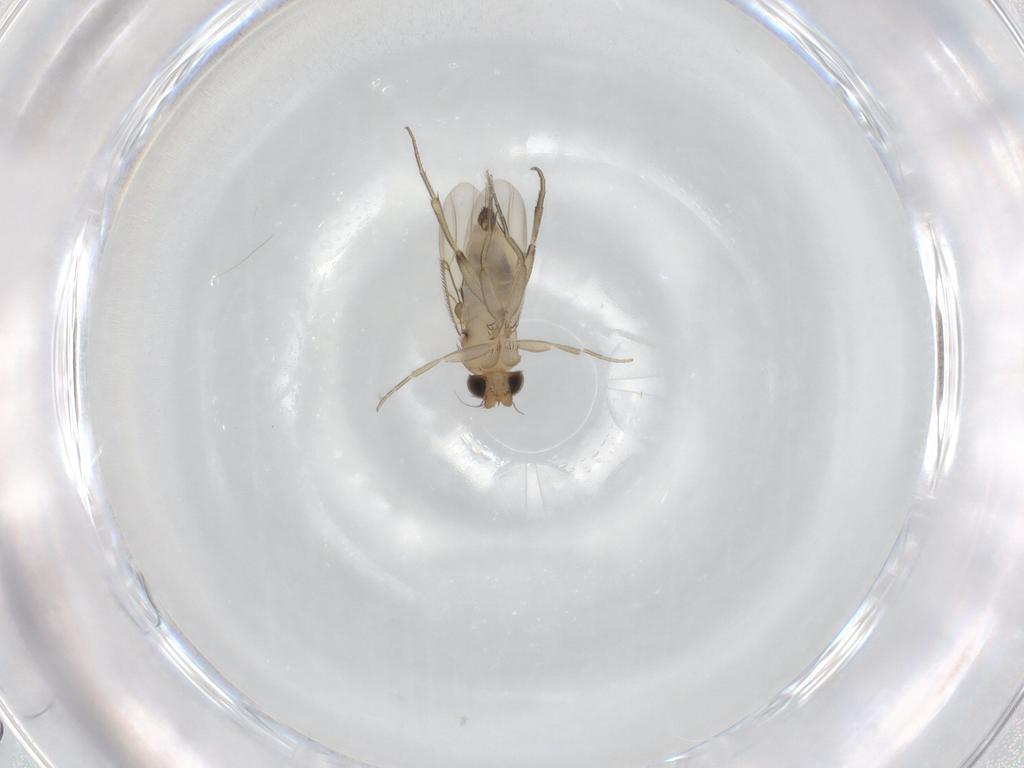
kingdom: Animalia
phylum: Arthropoda
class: Insecta
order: Diptera
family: Phoridae
